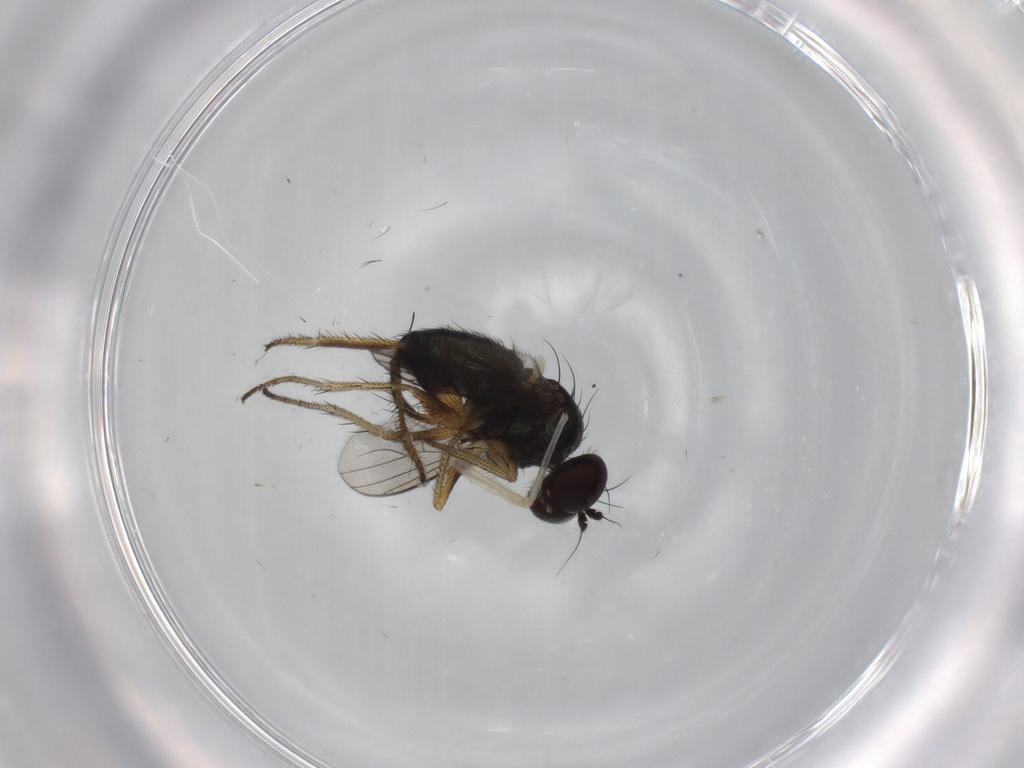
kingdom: Animalia
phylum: Arthropoda
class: Insecta
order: Diptera
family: Dolichopodidae
